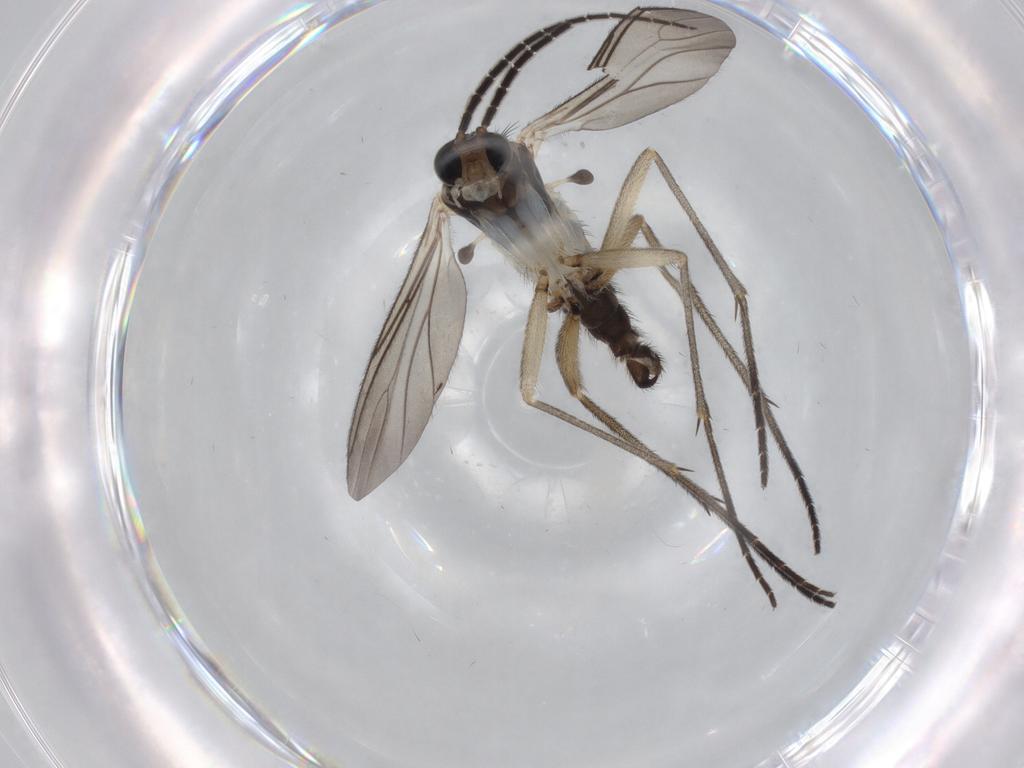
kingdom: Animalia
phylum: Arthropoda
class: Insecta
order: Diptera
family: Sciaridae
